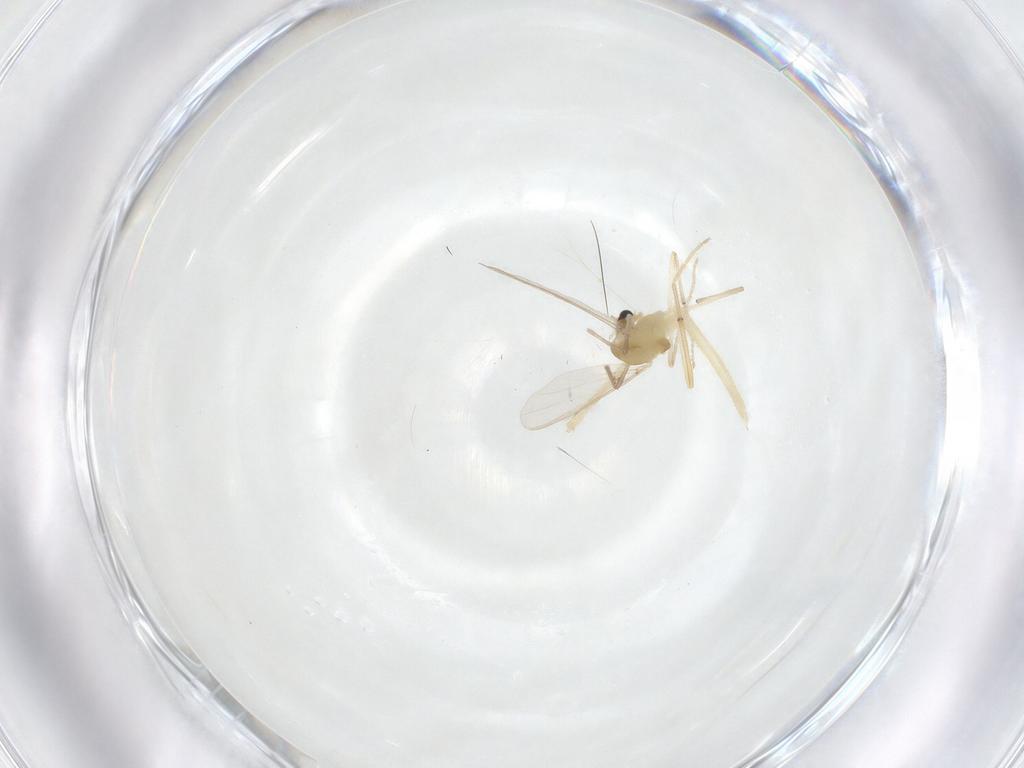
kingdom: Animalia
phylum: Arthropoda
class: Insecta
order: Diptera
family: Chironomidae
